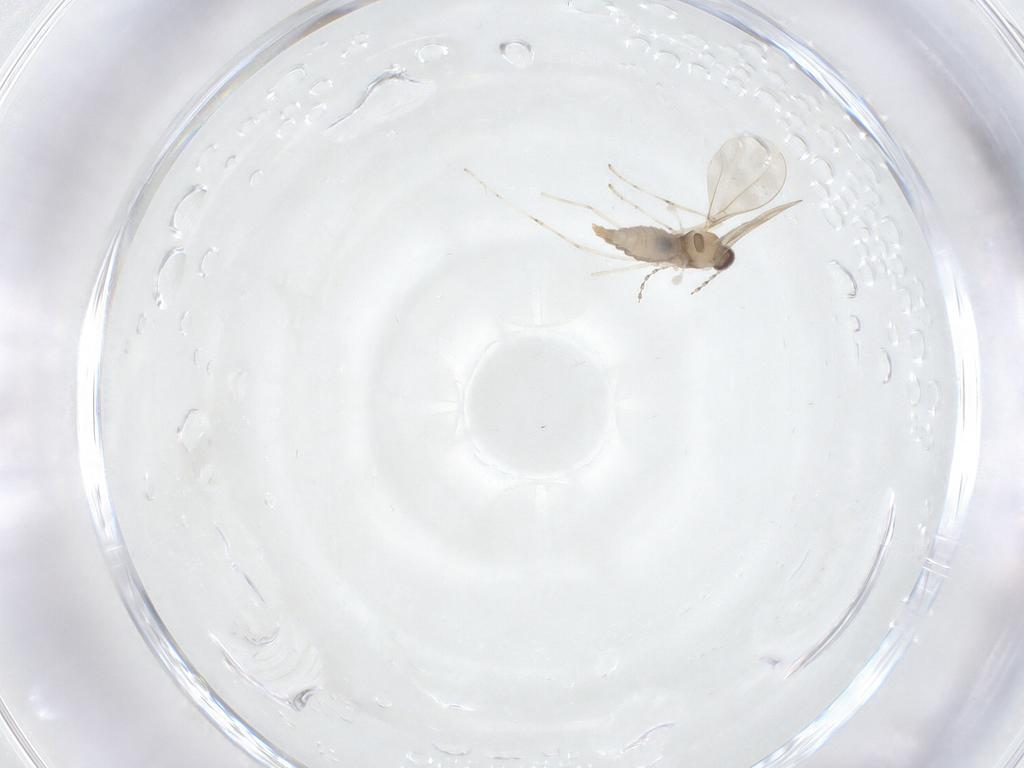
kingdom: Animalia
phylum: Arthropoda
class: Insecta
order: Diptera
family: Cecidomyiidae
